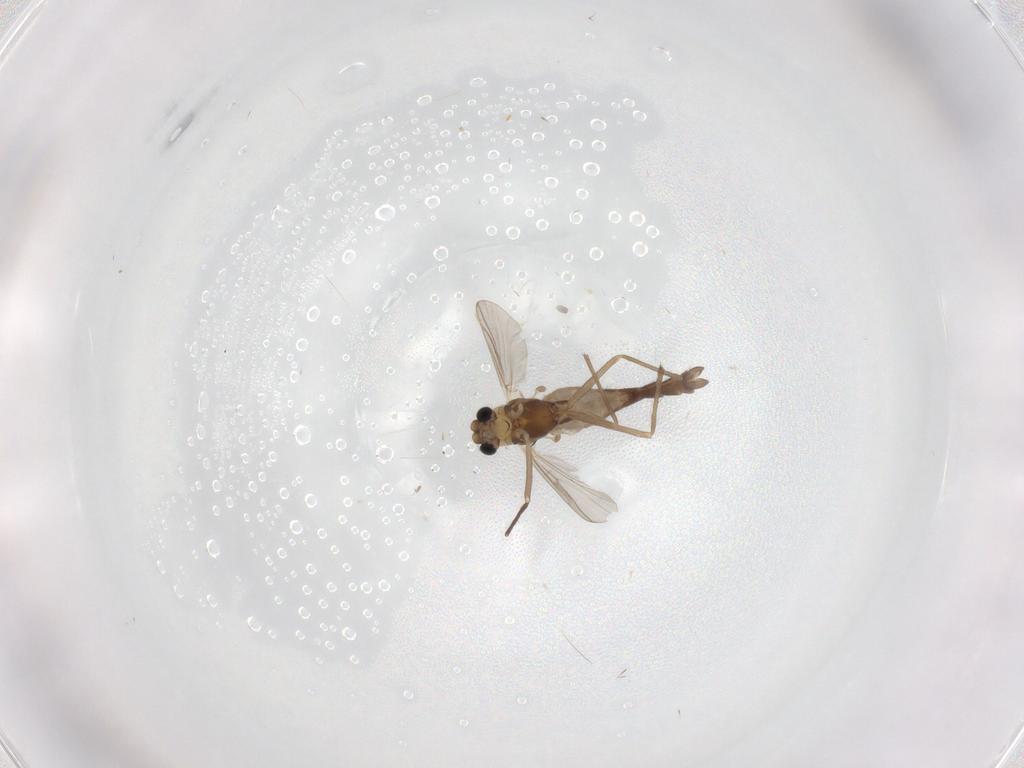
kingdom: Animalia
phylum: Arthropoda
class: Insecta
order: Diptera
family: Chironomidae
